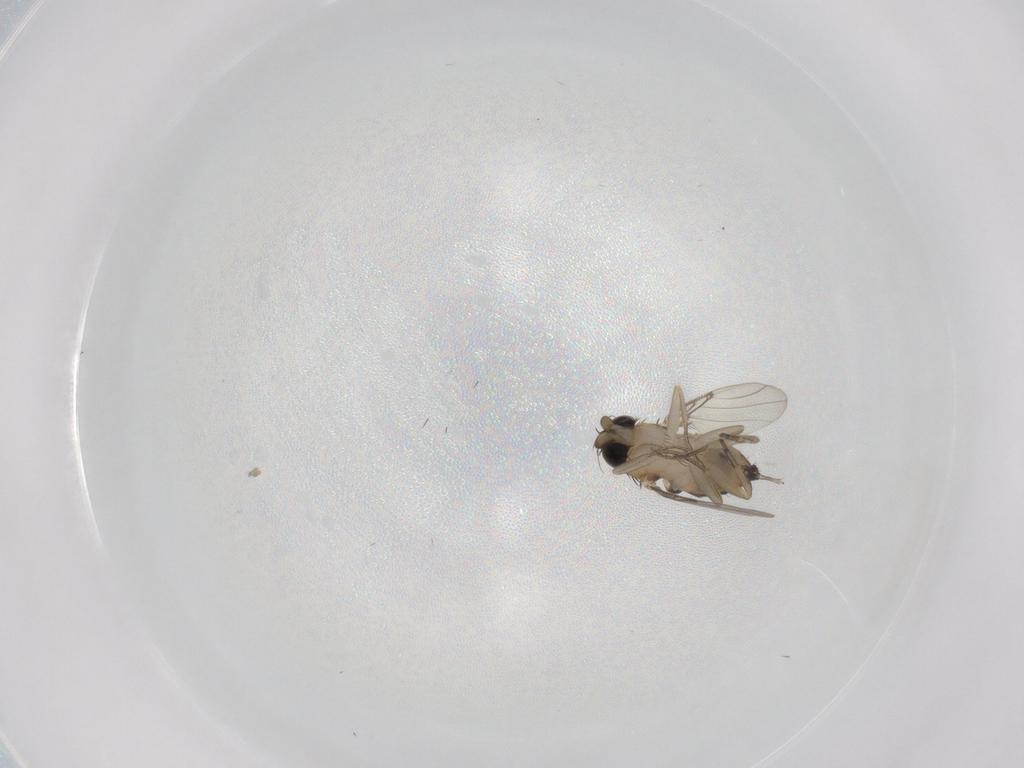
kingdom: Animalia
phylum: Arthropoda
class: Insecta
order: Diptera
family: Phoridae
